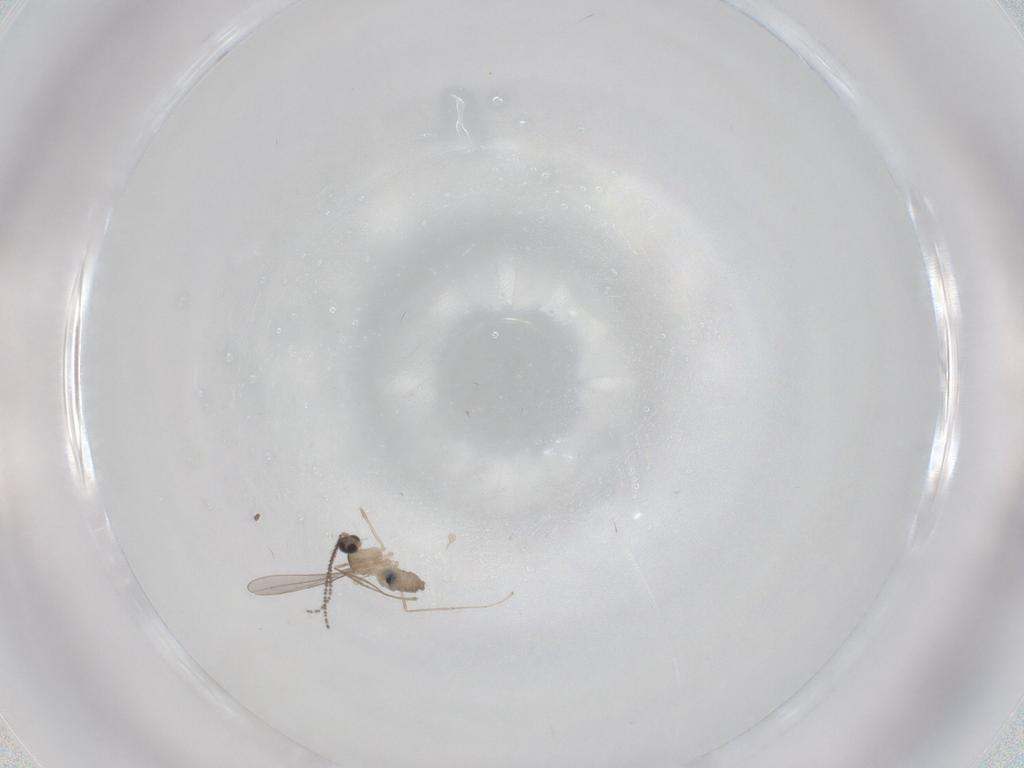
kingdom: Animalia
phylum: Arthropoda
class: Insecta
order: Diptera
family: Cecidomyiidae
